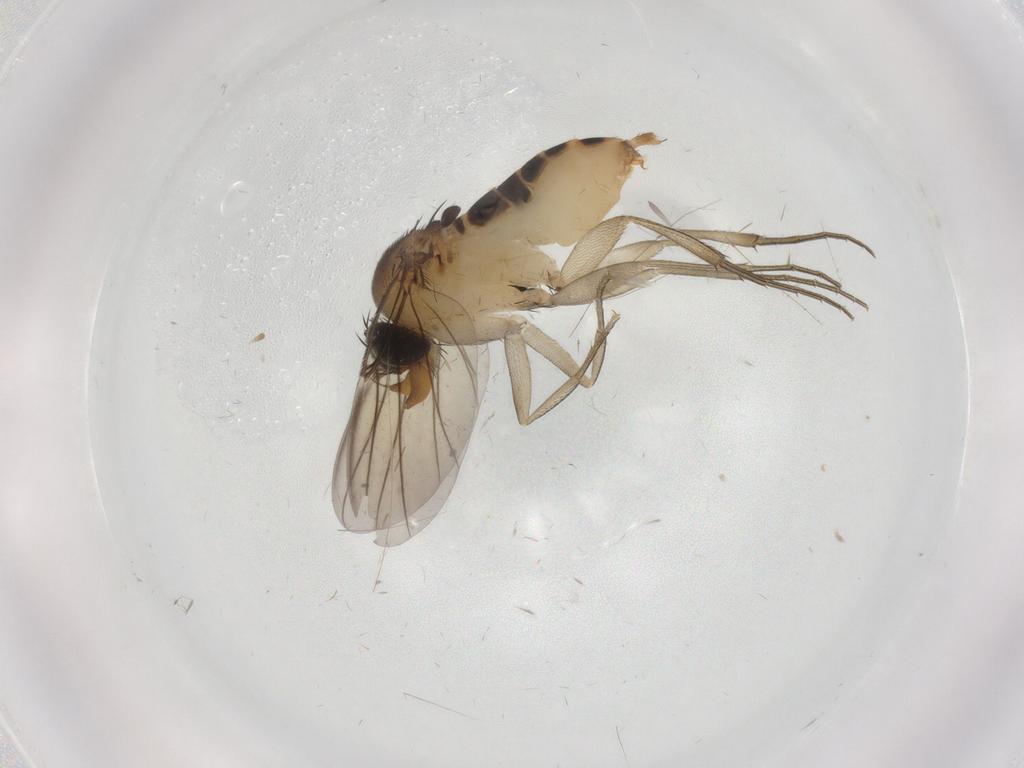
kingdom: Animalia
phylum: Arthropoda
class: Insecta
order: Diptera
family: Phoridae
